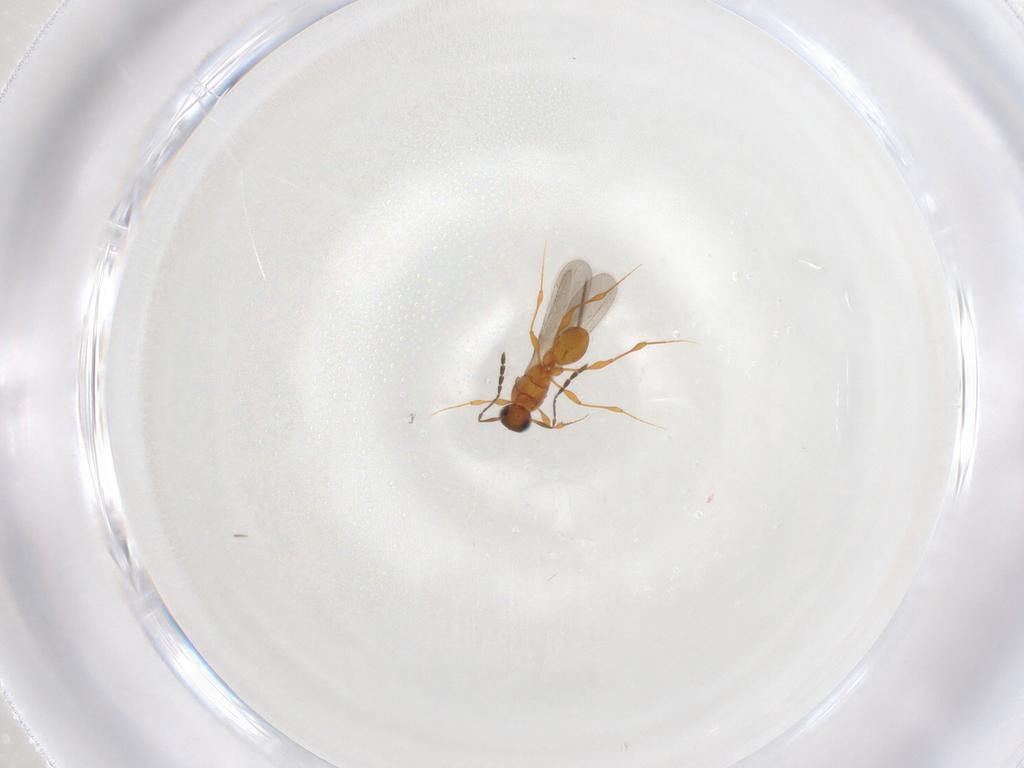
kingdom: Animalia
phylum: Arthropoda
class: Insecta
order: Hymenoptera
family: Platygastridae
